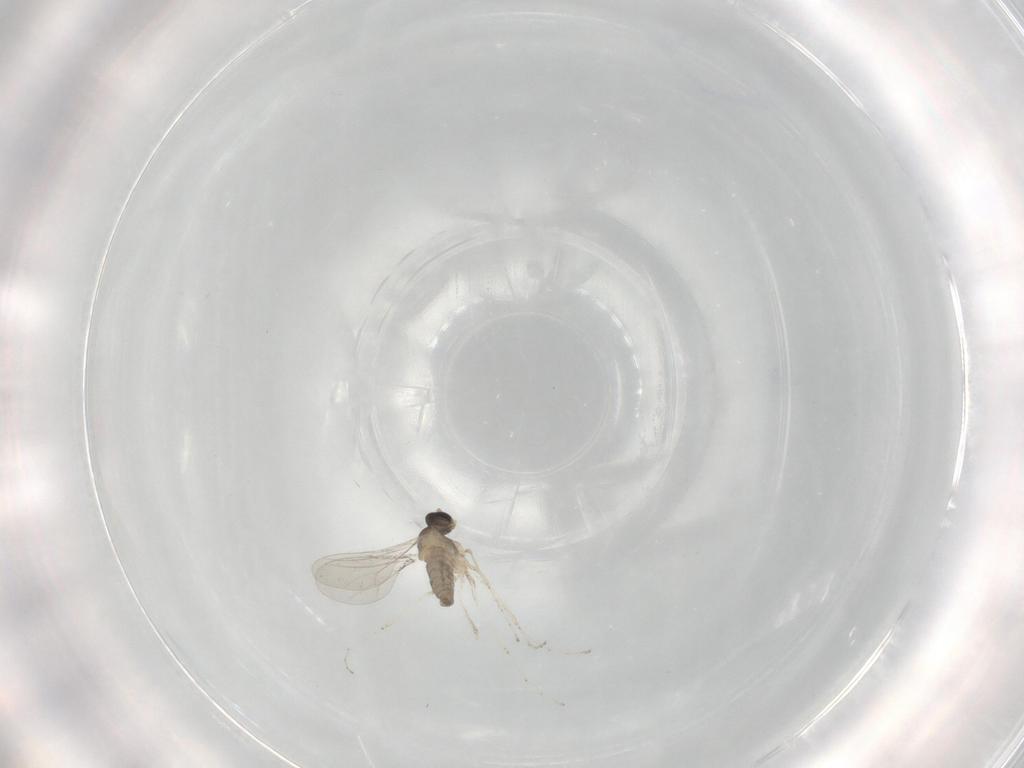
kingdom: Animalia
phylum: Arthropoda
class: Insecta
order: Diptera
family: Cecidomyiidae
